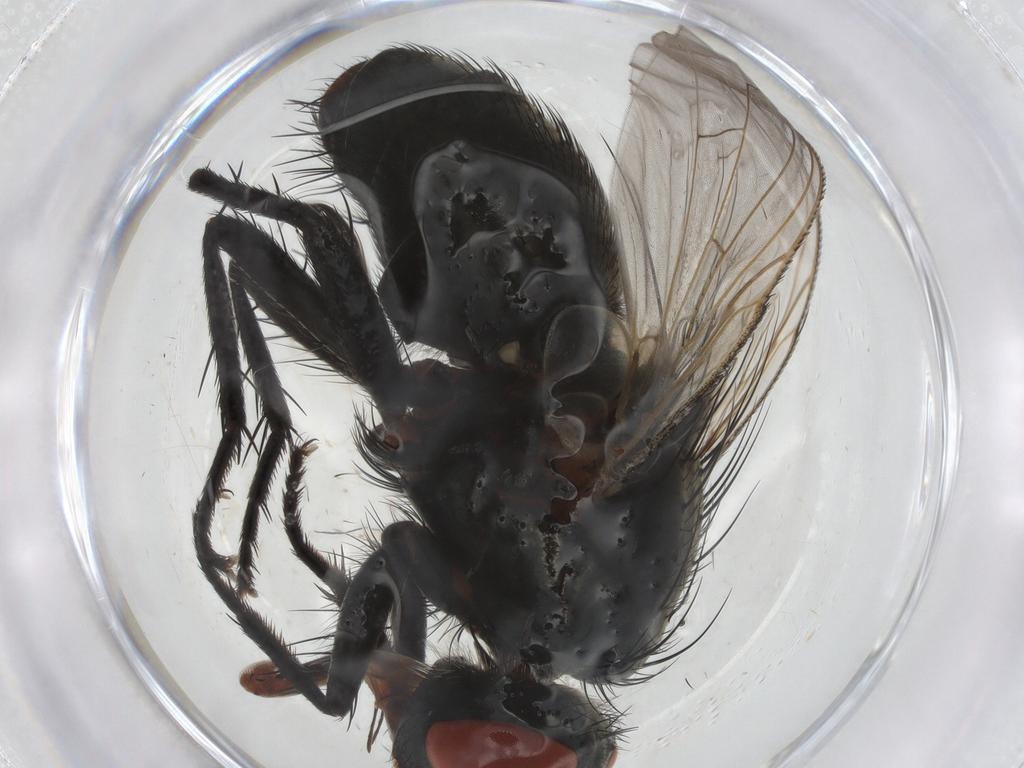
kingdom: Animalia
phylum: Arthropoda
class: Insecta
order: Diptera
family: Sarcophagidae
